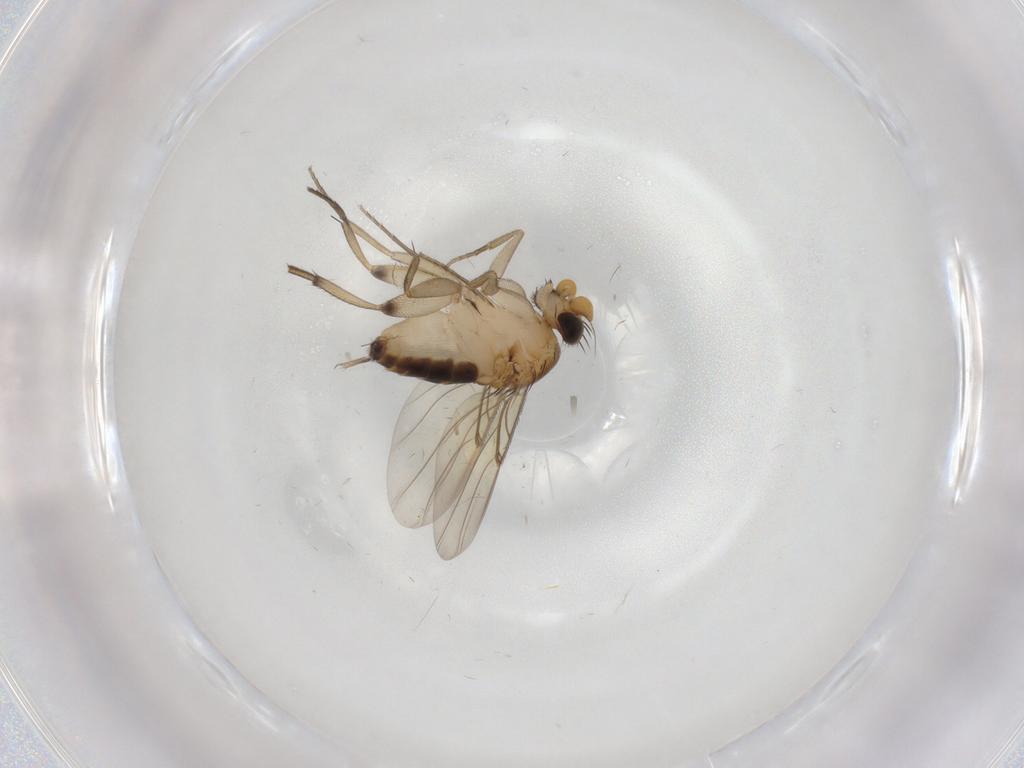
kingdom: Animalia
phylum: Arthropoda
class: Insecta
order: Diptera
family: Phoridae
